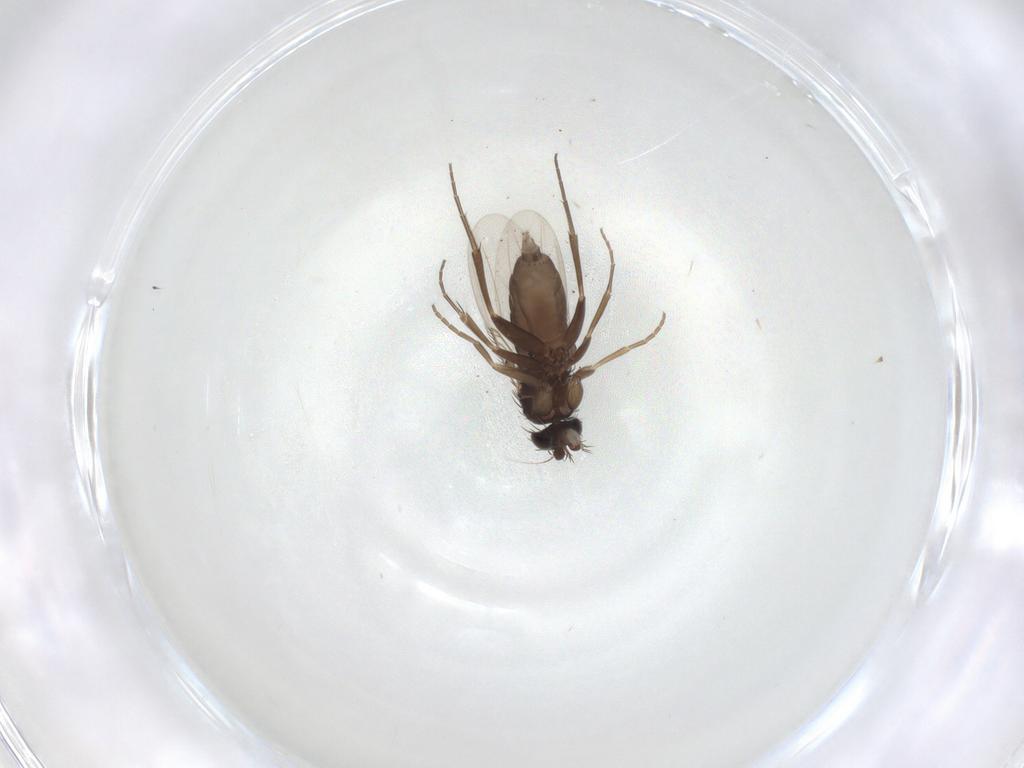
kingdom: Animalia
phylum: Arthropoda
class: Insecta
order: Diptera
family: Phoridae
